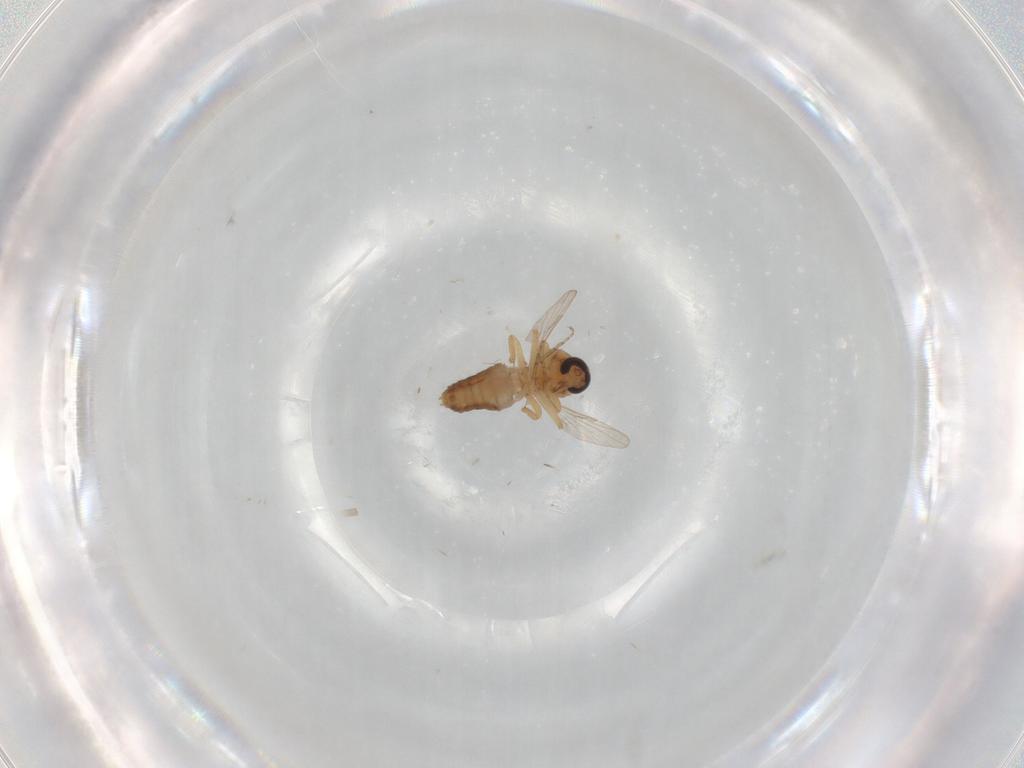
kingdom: Animalia
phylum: Arthropoda
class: Insecta
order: Diptera
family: Ceratopogonidae
